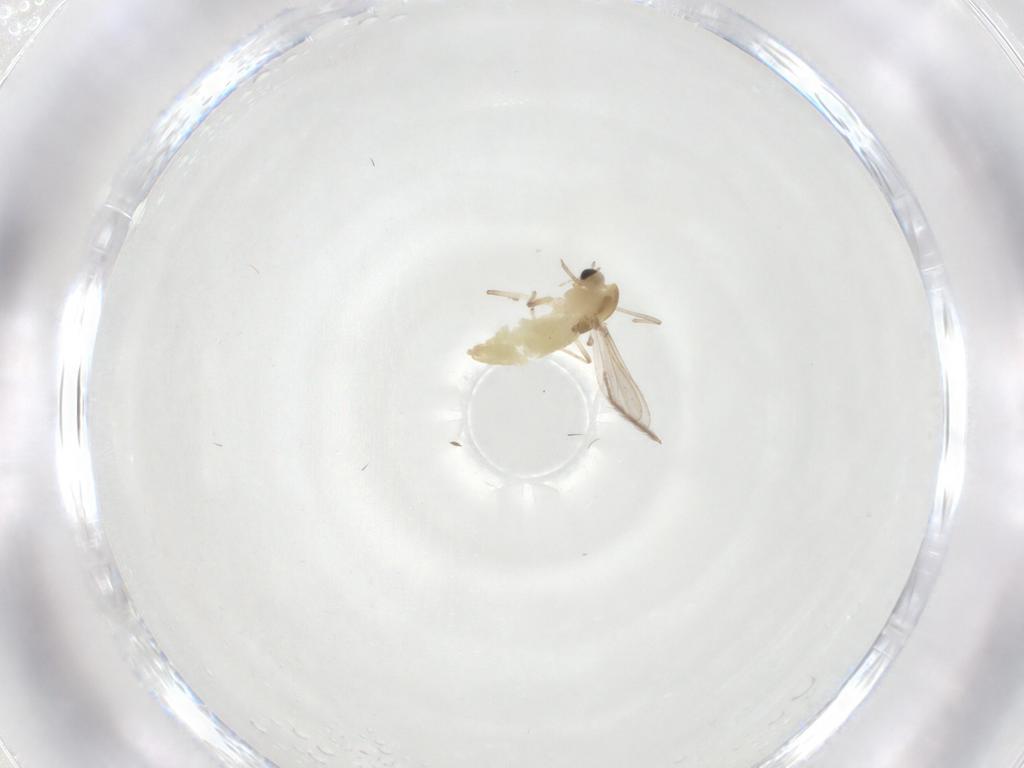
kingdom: Animalia
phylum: Arthropoda
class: Insecta
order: Diptera
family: Chironomidae
